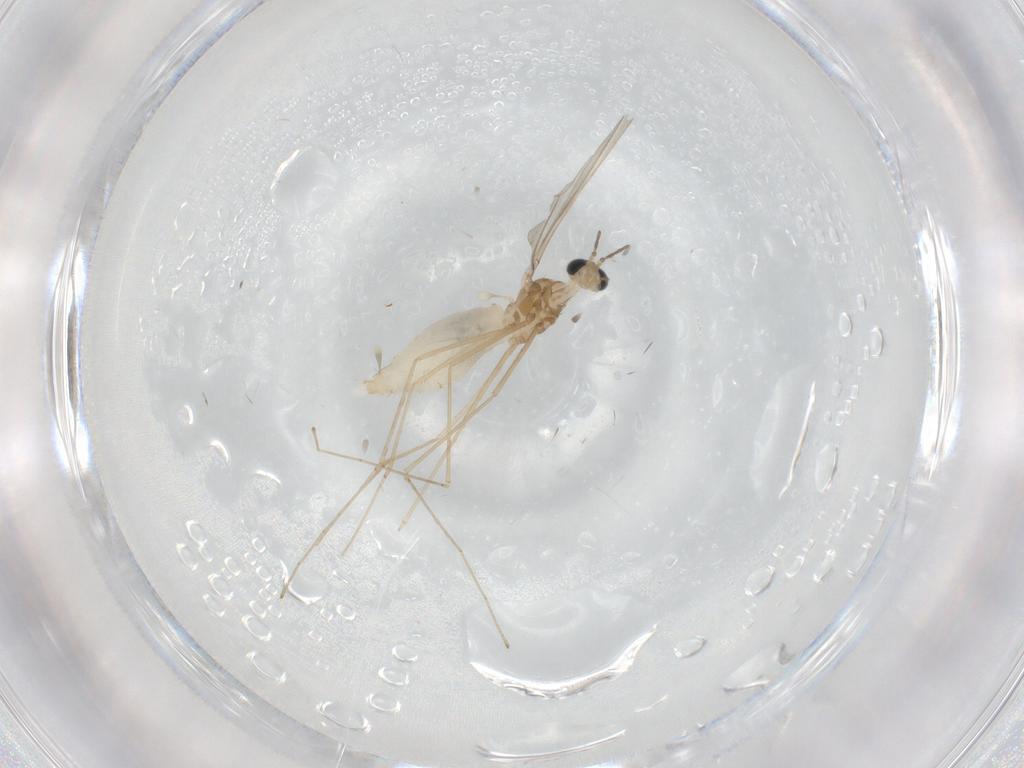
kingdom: Animalia
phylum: Arthropoda
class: Insecta
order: Diptera
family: Cecidomyiidae
